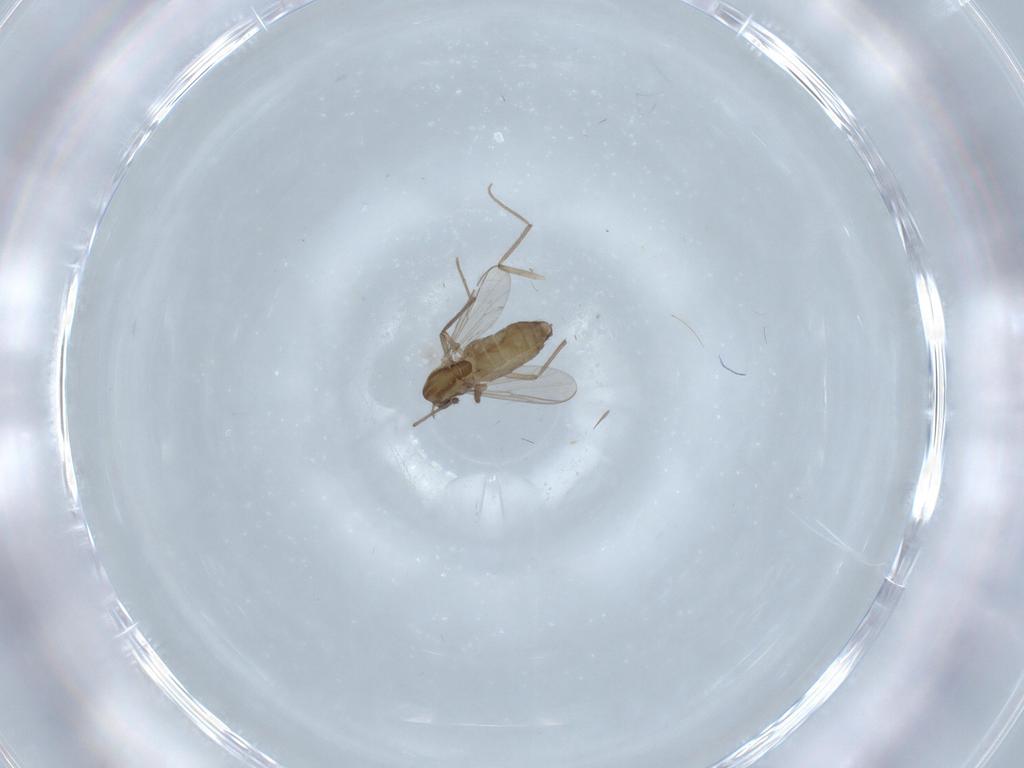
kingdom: Animalia
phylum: Arthropoda
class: Insecta
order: Diptera
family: Chironomidae
